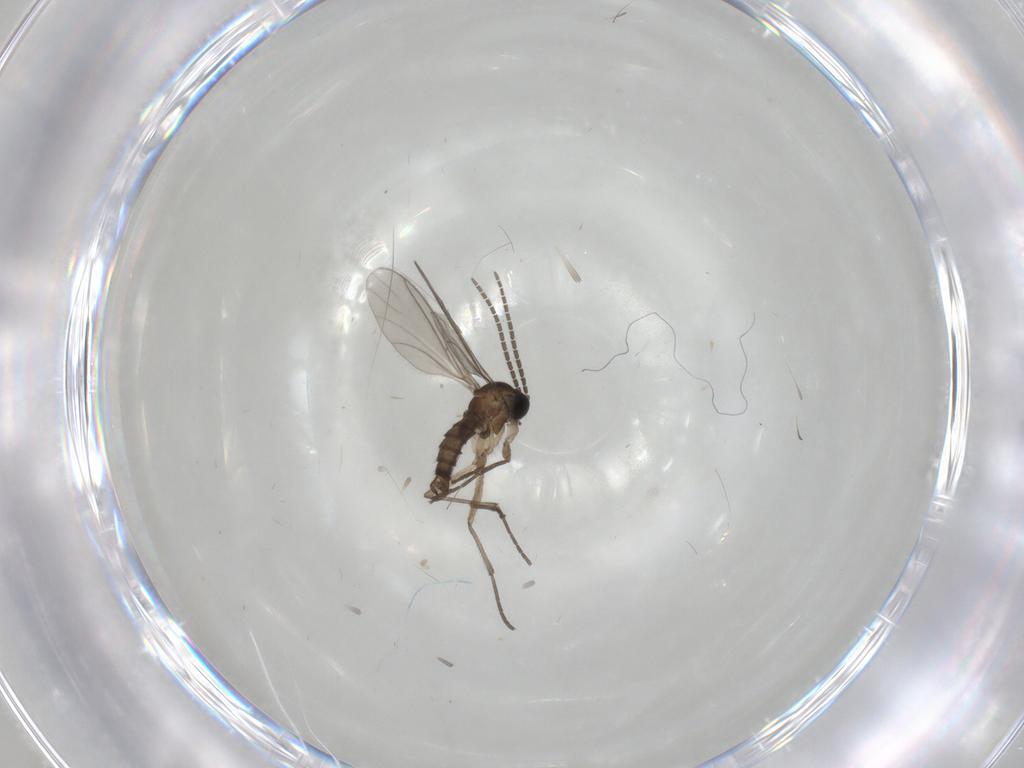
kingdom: Animalia
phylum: Arthropoda
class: Insecta
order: Diptera
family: Sciaridae
